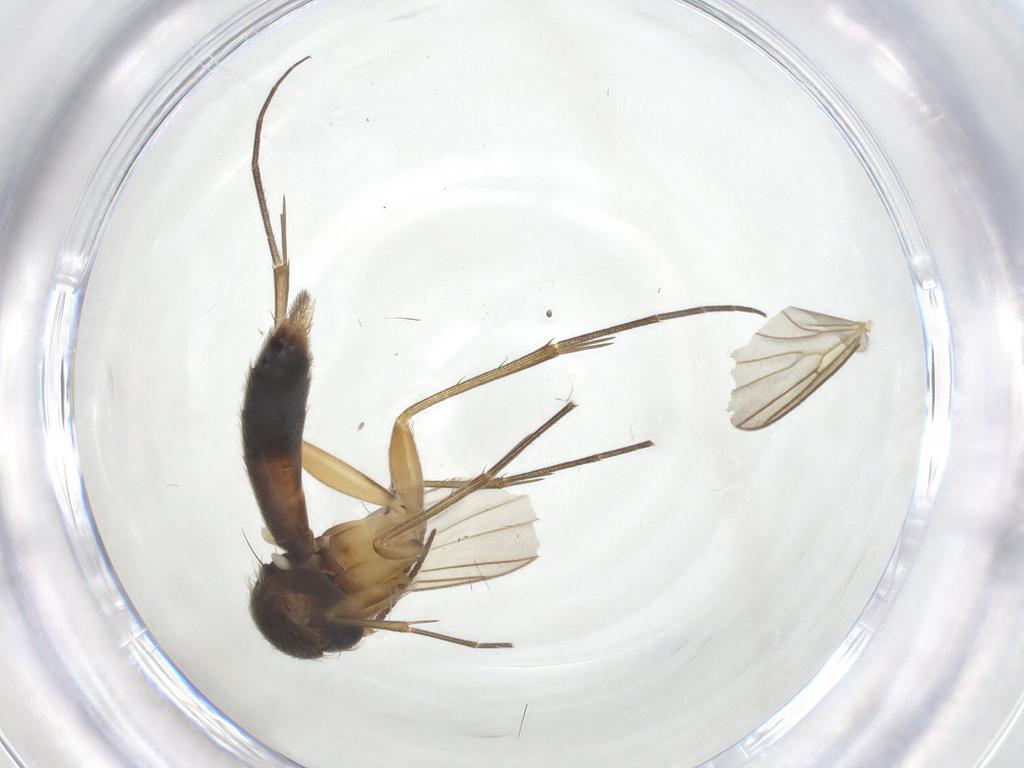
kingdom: Animalia
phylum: Arthropoda
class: Insecta
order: Diptera
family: Mycetophilidae
